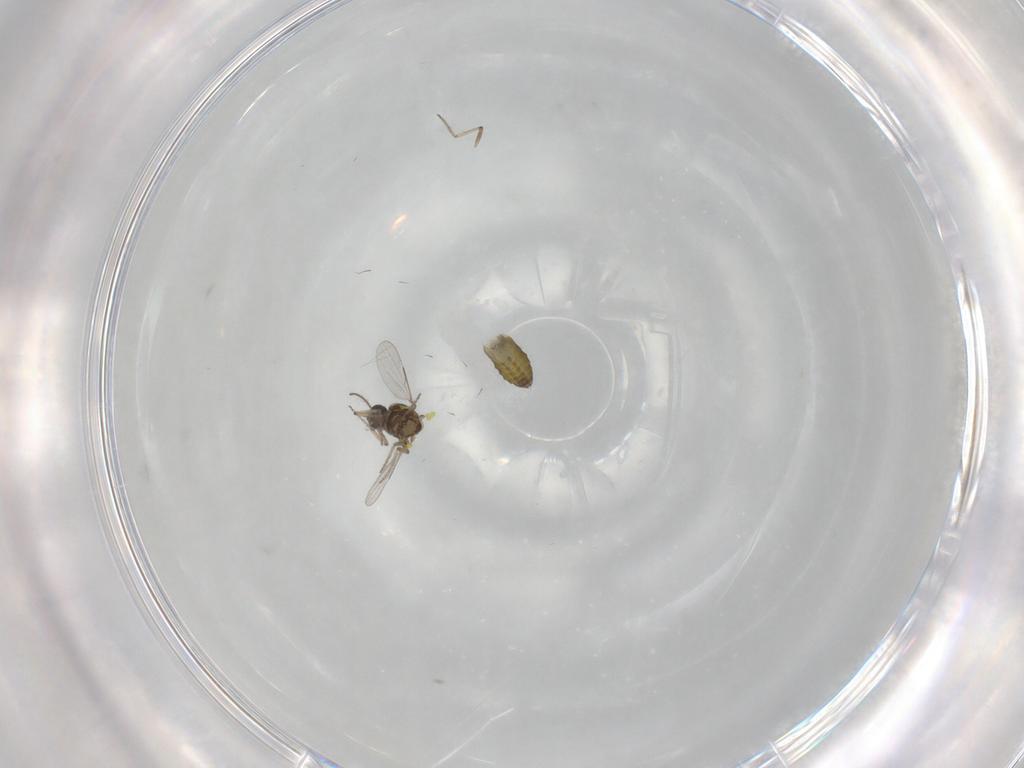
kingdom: Animalia
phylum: Arthropoda
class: Insecta
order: Diptera
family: Ceratopogonidae
